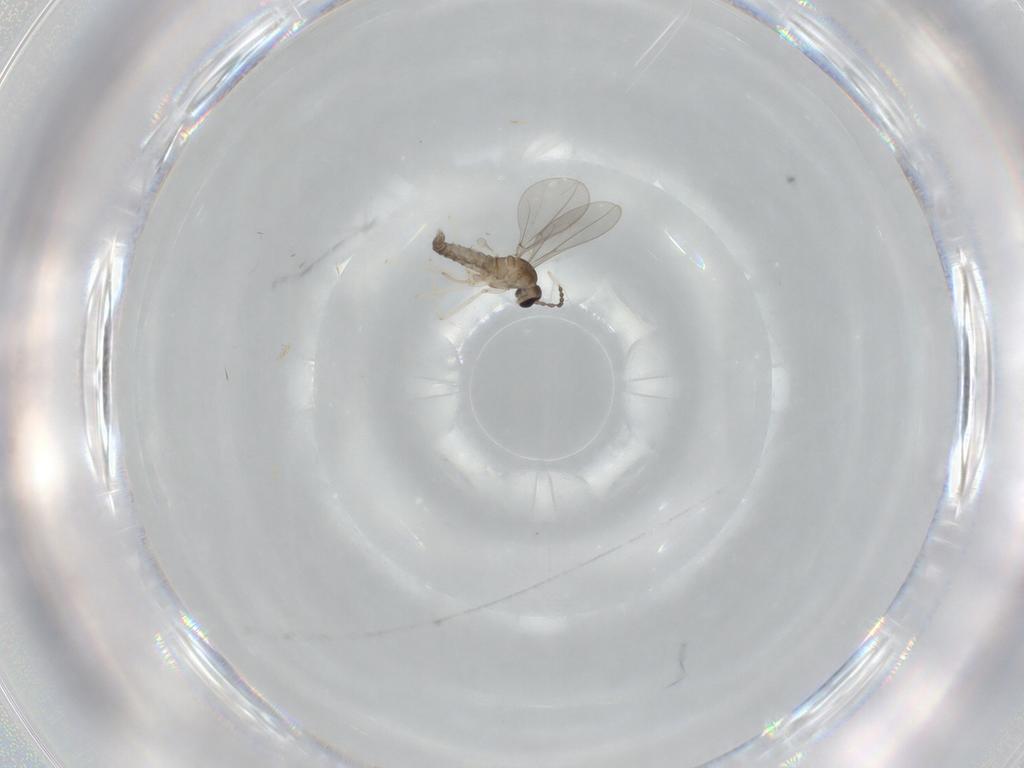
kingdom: Animalia
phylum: Arthropoda
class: Insecta
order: Diptera
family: Cecidomyiidae
